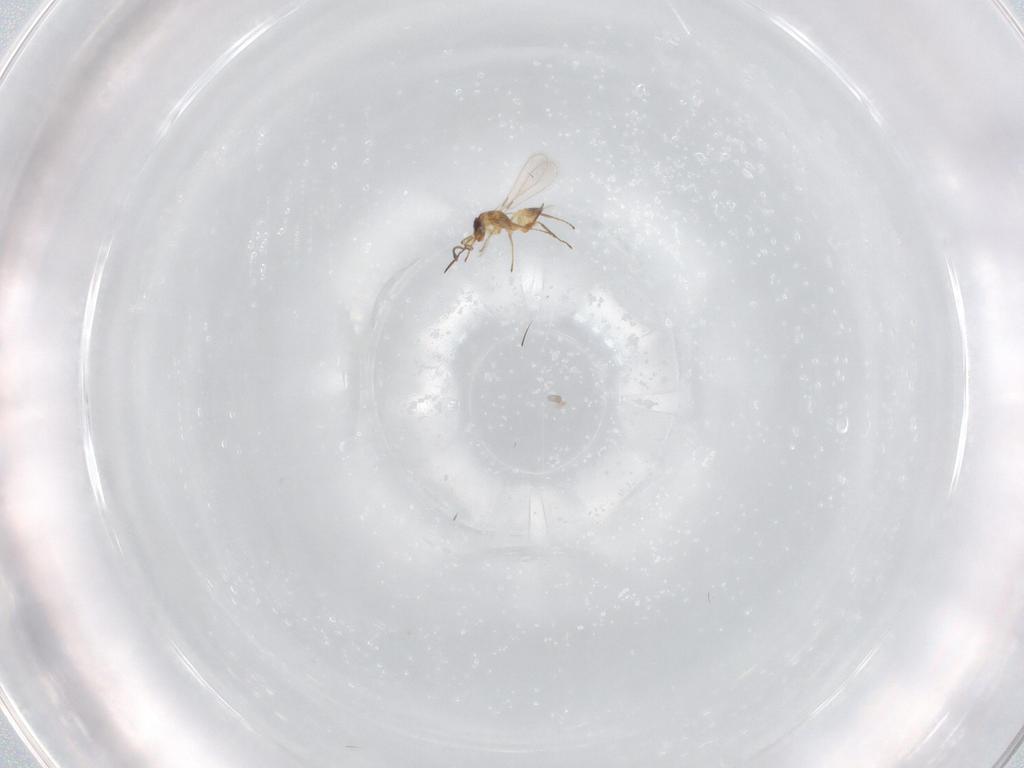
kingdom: Animalia
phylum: Arthropoda
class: Insecta
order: Hymenoptera
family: Mymaridae
